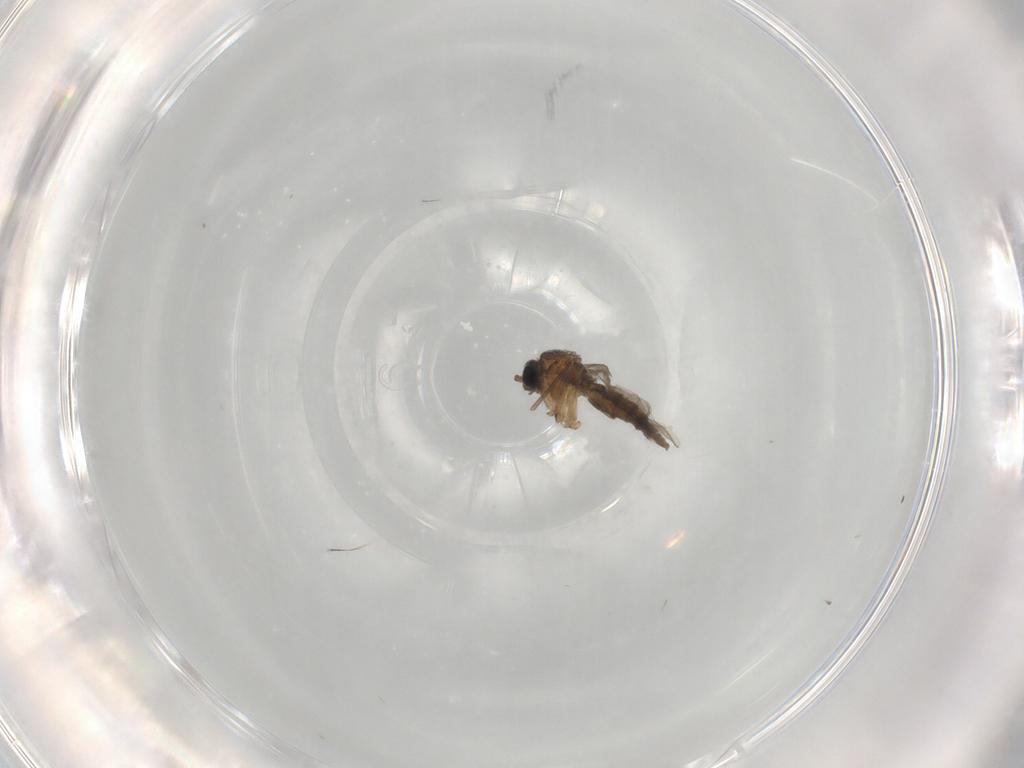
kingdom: Animalia
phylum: Arthropoda
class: Insecta
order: Diptera
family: Sciaridae
